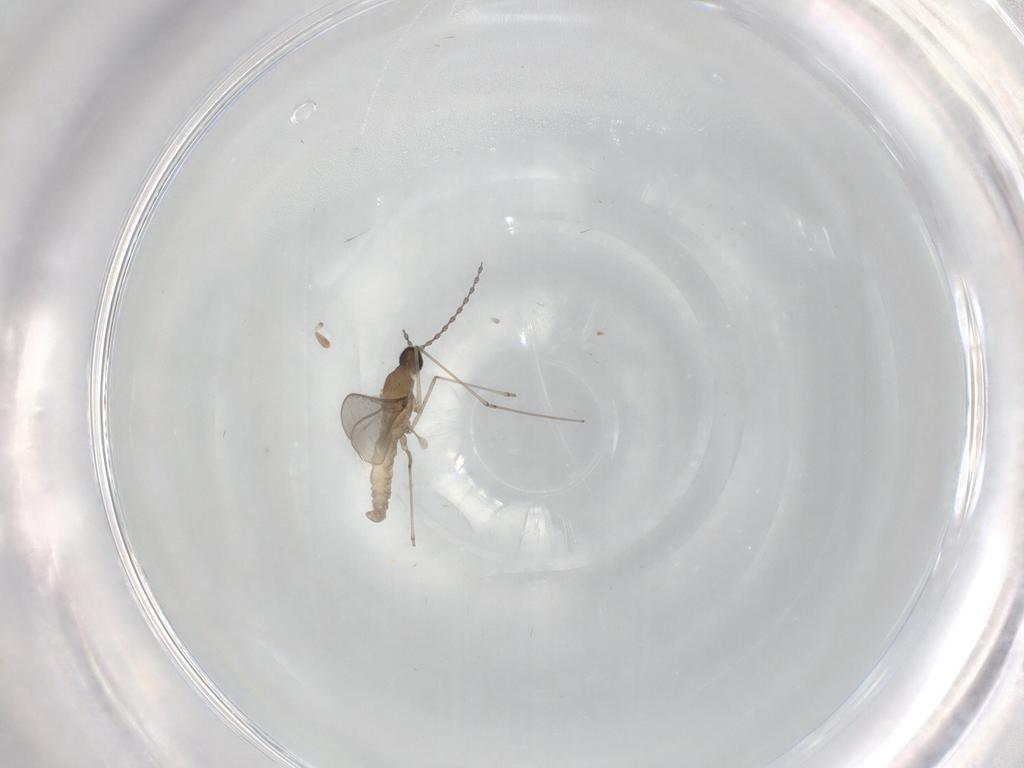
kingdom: Animalia
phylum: Arthropoda
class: Insecta
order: Diptera
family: Cecidomyiidae
